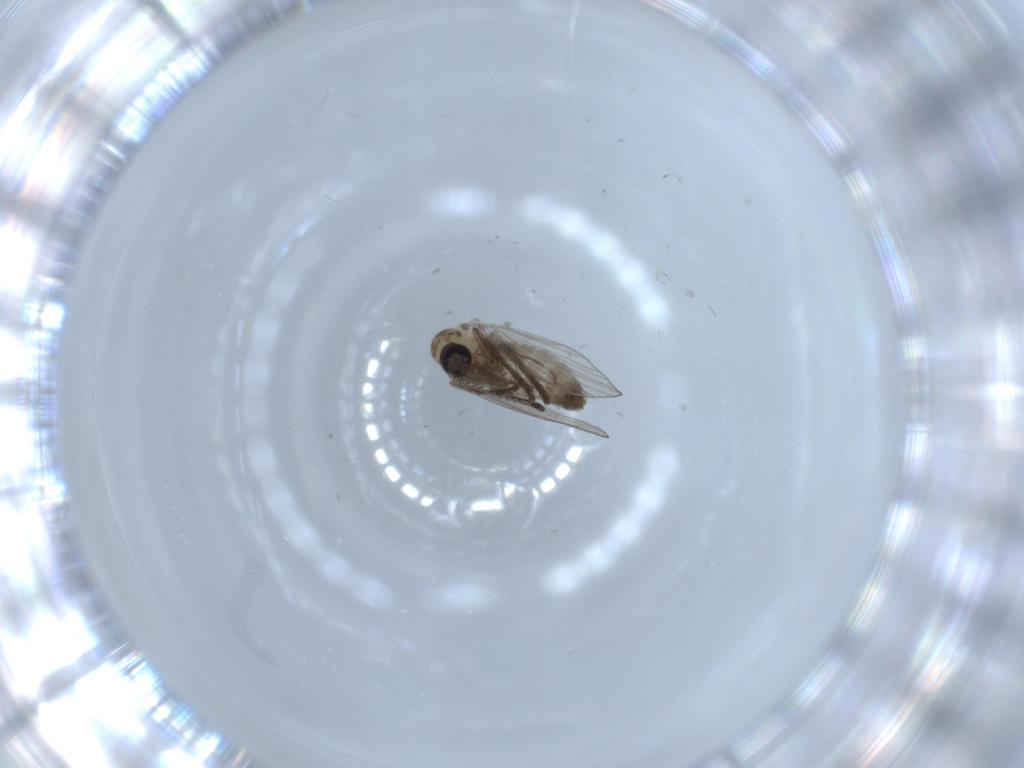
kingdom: Animalia
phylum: Arthropoda
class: Insecta
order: Diptera
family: Psychodidae
